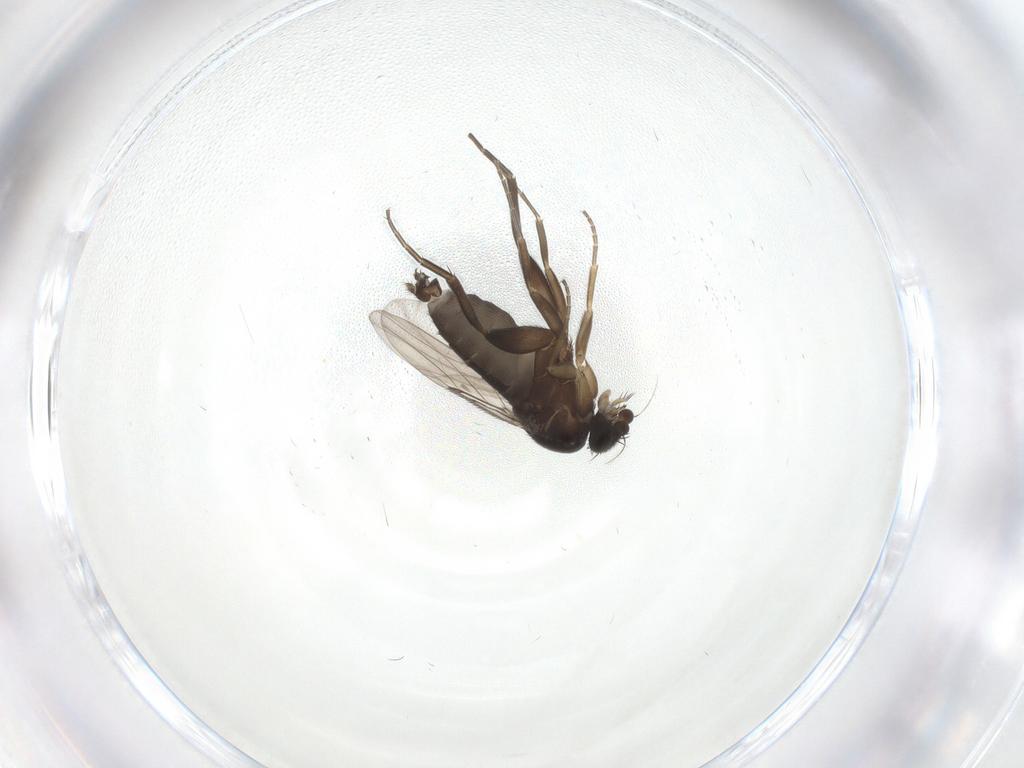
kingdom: Animalia
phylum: Arthropoda
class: Insecta
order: Diptera
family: Phoridae
